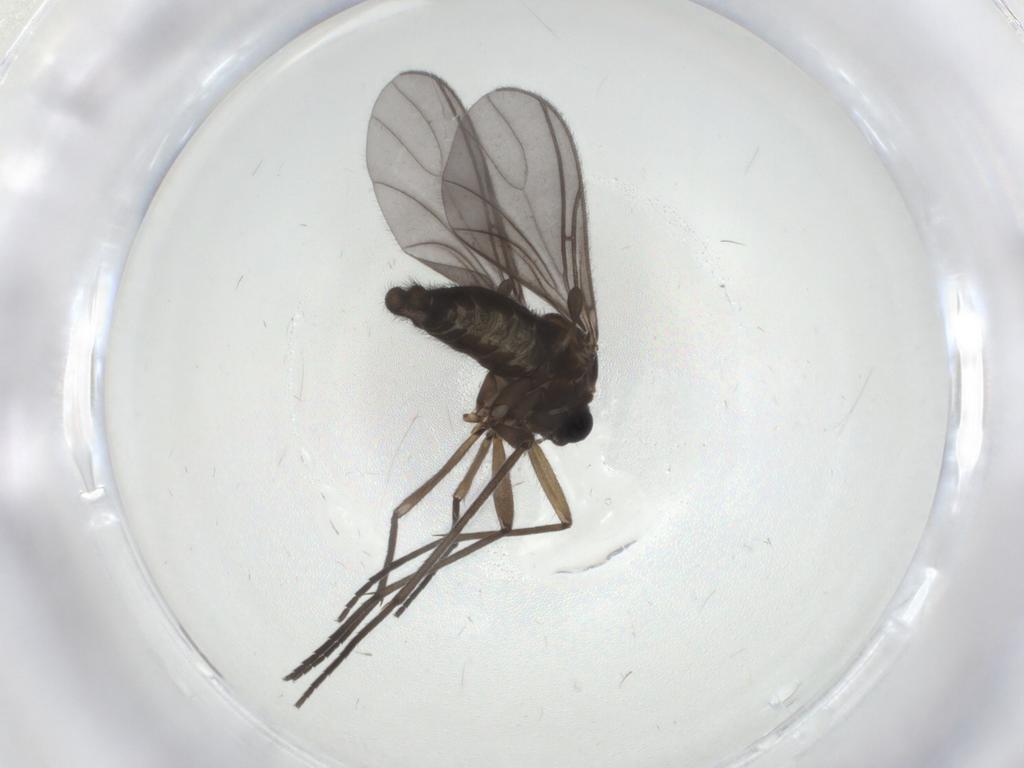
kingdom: Animalia
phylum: Arthropoda
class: Insecta
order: Diptera
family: Sciaridae
